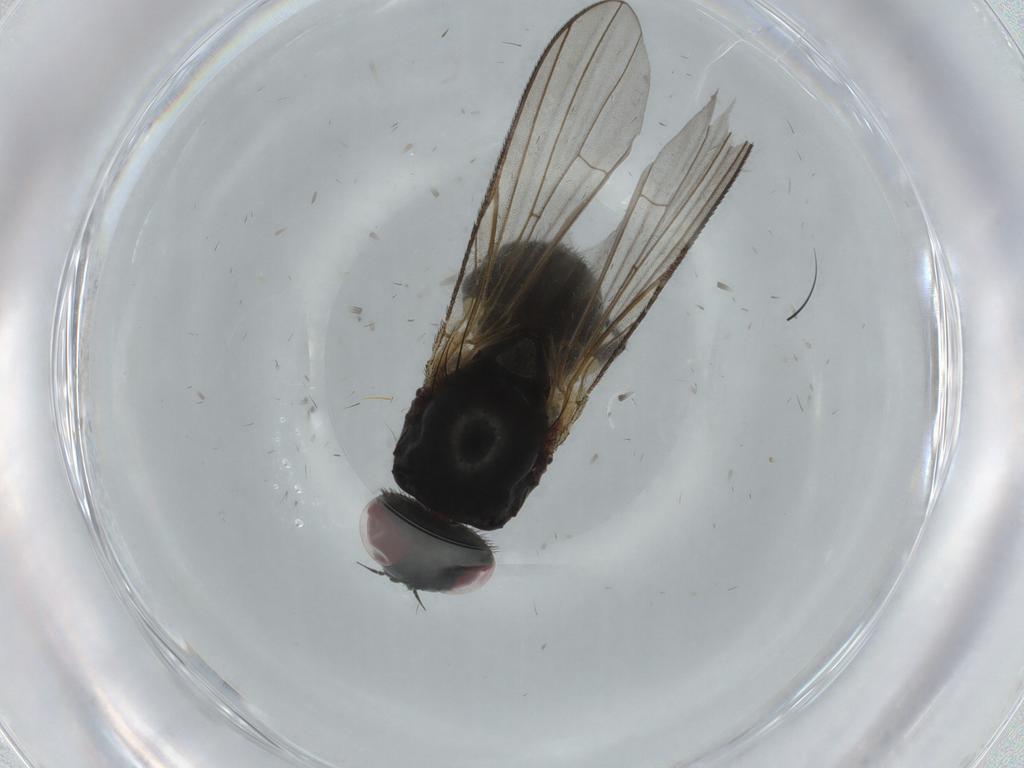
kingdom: Animalia
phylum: Arthropoda
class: Insecta
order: Diptera
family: Fannia
